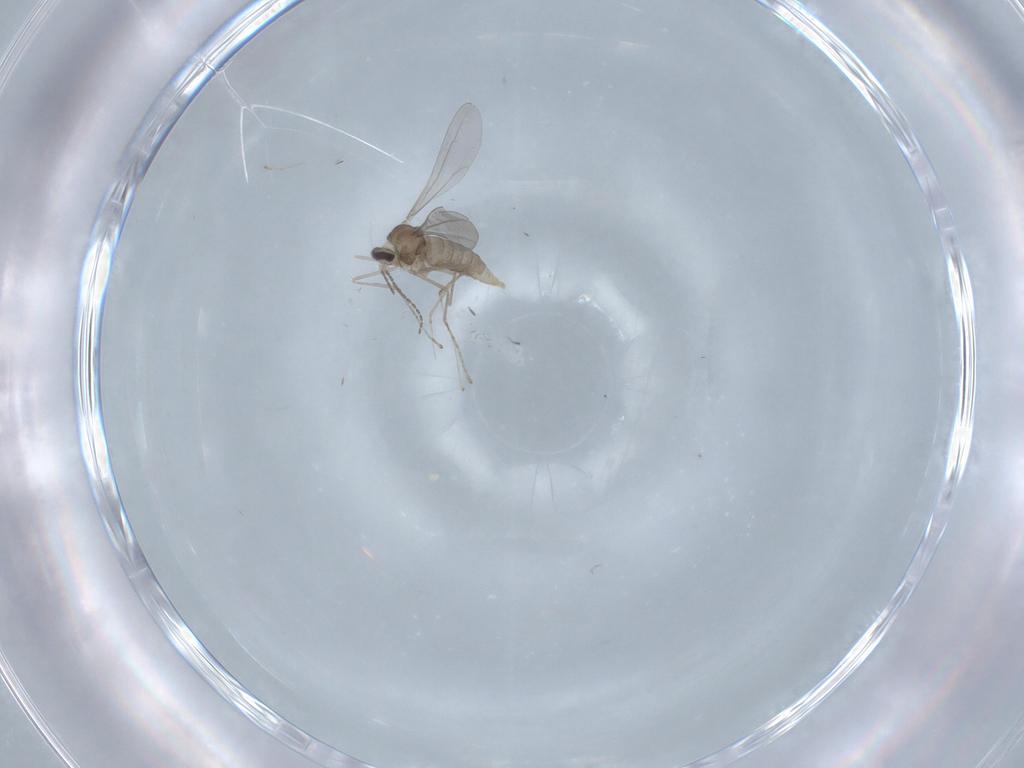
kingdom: Animalia
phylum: Arthropoda
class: Insecta
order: Diptera
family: Cecidomyiidae
